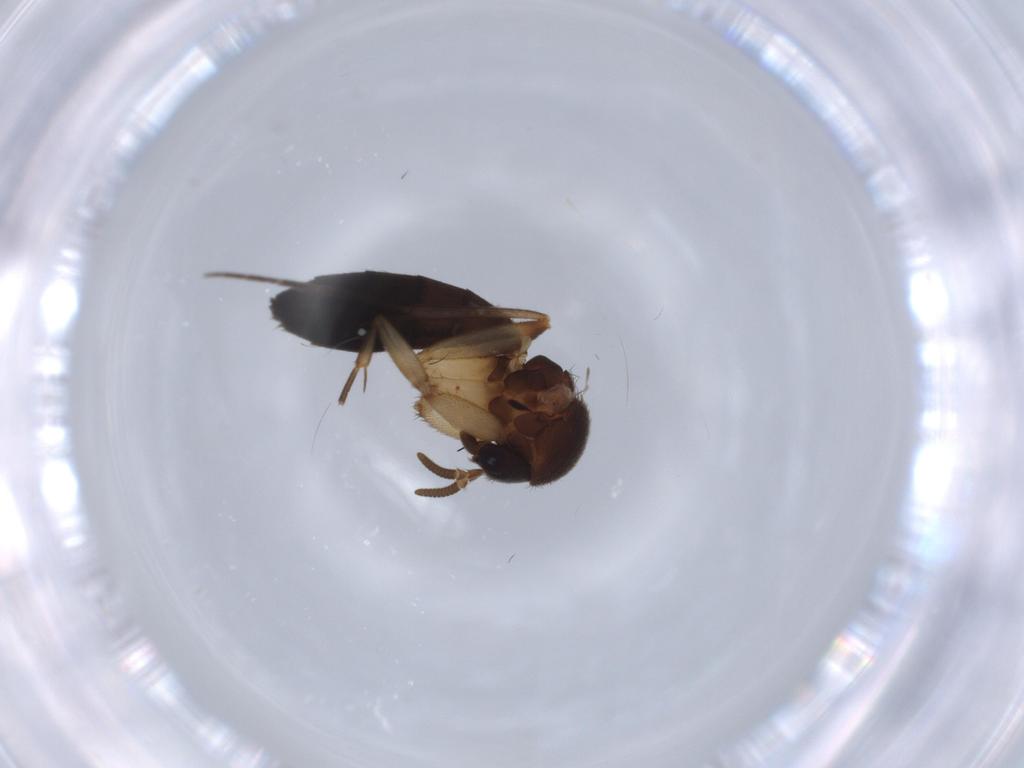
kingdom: Animalia
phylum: Arthropoda
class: Insecta
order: Diptera
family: Mycetophilidae
